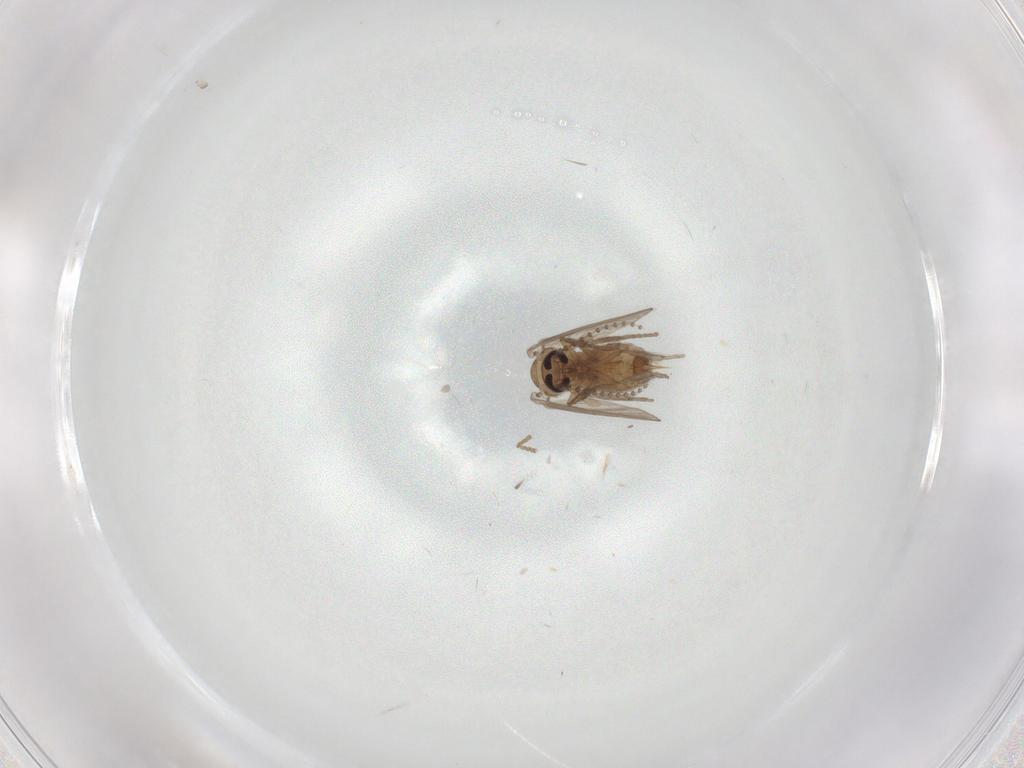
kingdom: Animalia
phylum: Arthropoda
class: Insecta
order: Diptera
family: Psychodidae
